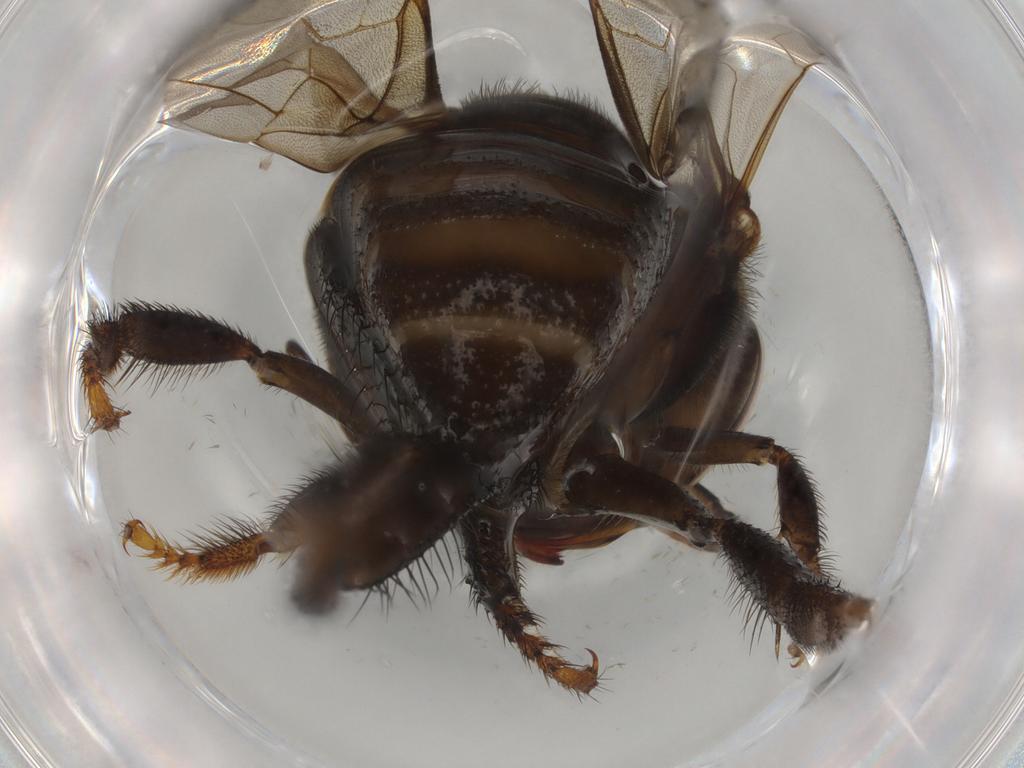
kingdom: Animalia
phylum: Arthropoda
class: Insecta
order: Hymenoptera
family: Apidae
